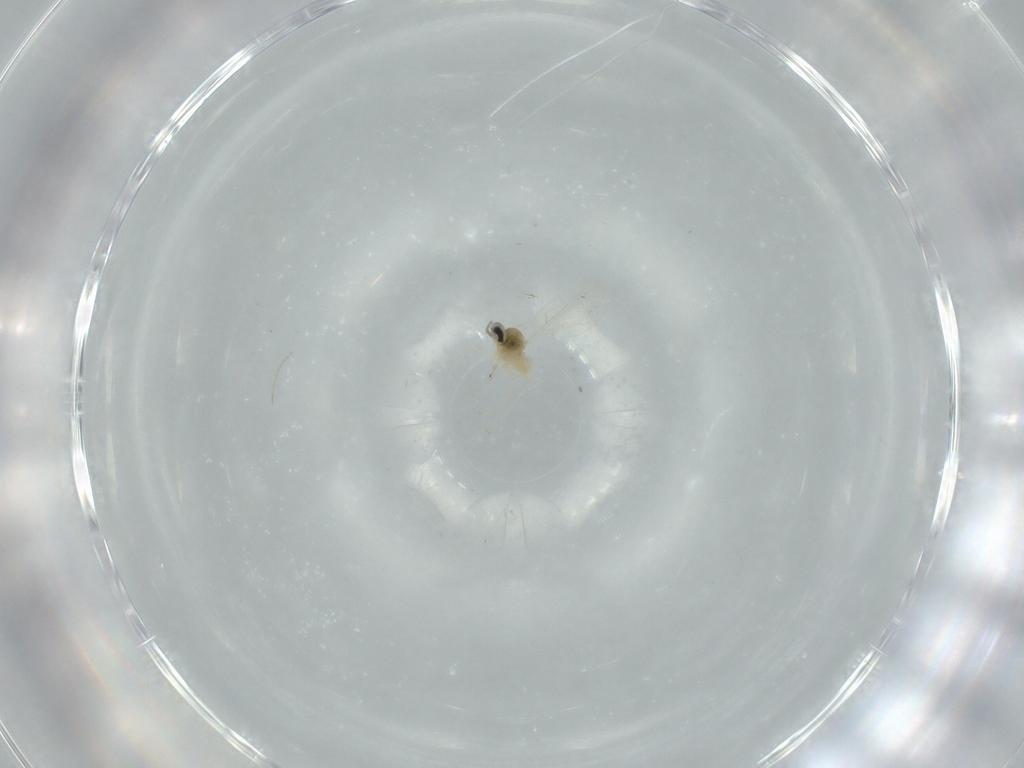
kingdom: Animalia
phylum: Arthropoda
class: Insecta
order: Diptera
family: Cecidomyiidae
